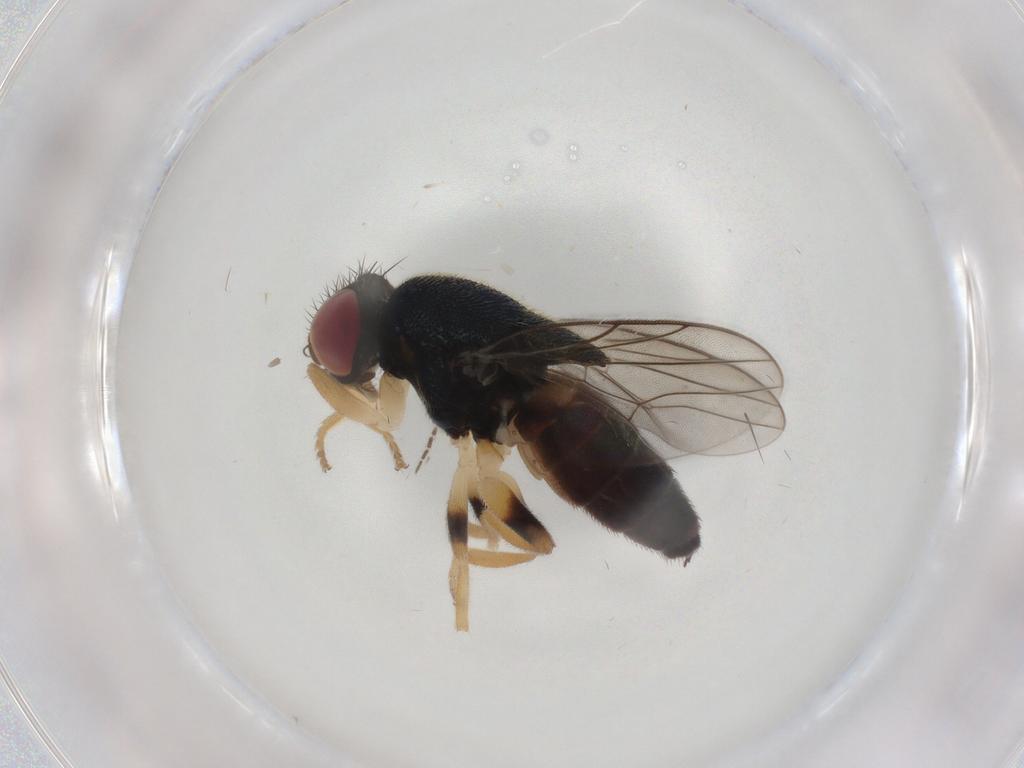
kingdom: Animalia
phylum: Arthropoda
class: Insecta
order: Diptera
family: Chloropidae
